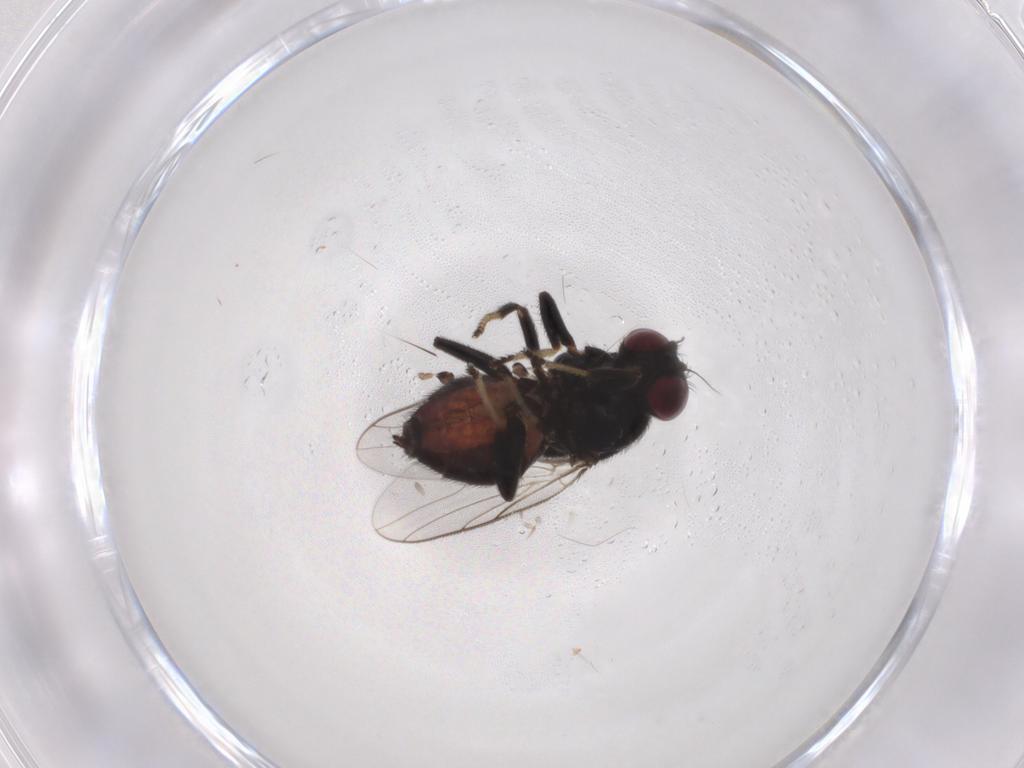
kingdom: Animalia
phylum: Arthropoda
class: Insecta
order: Diptera
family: Chloropidae
